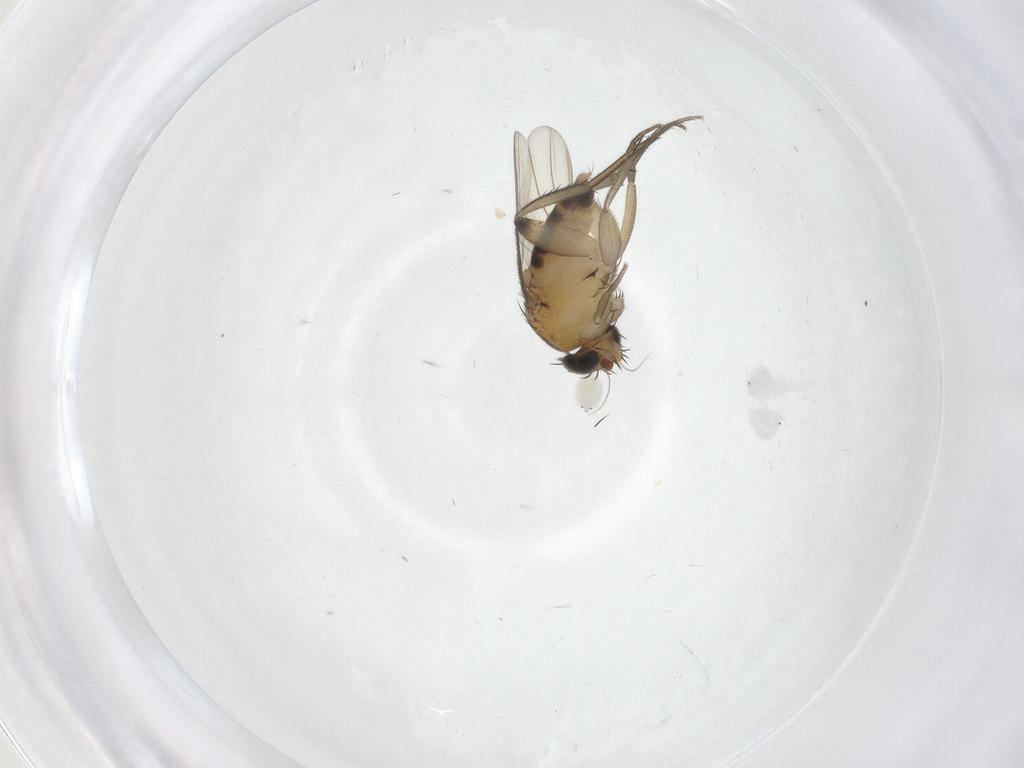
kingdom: Animalia
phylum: Arthropoda
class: Insecta
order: Diptera
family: Phoridae
